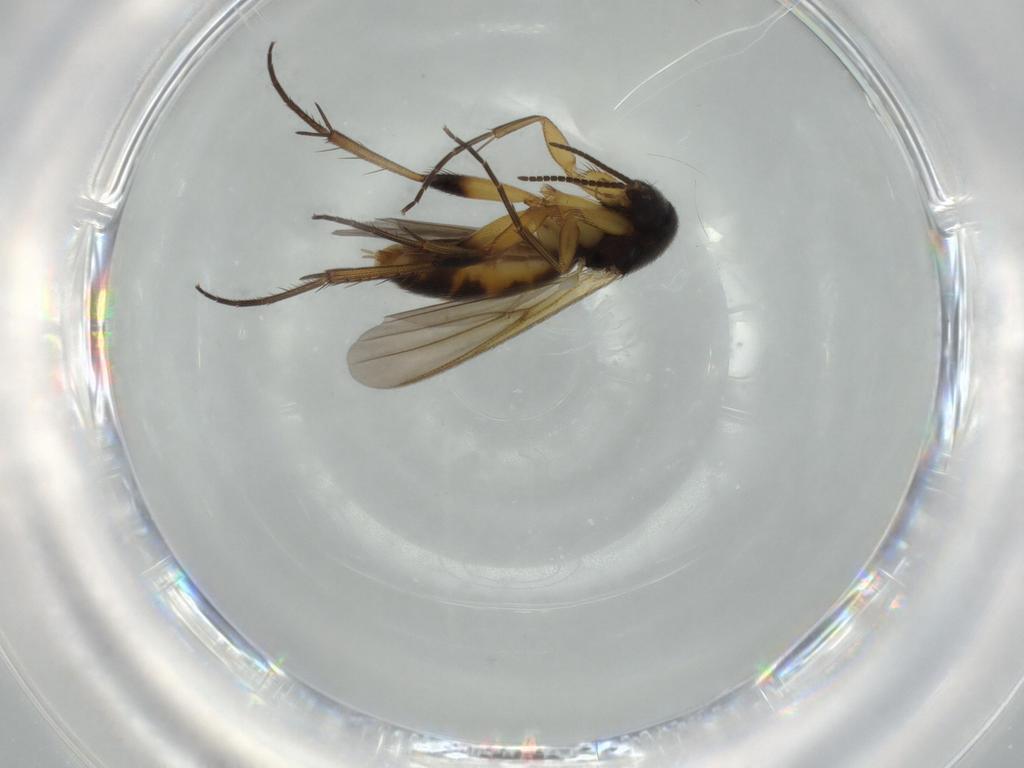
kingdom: Animalia
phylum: Arthropoda
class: Insecta
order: Diptera
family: Mycetophilidae
